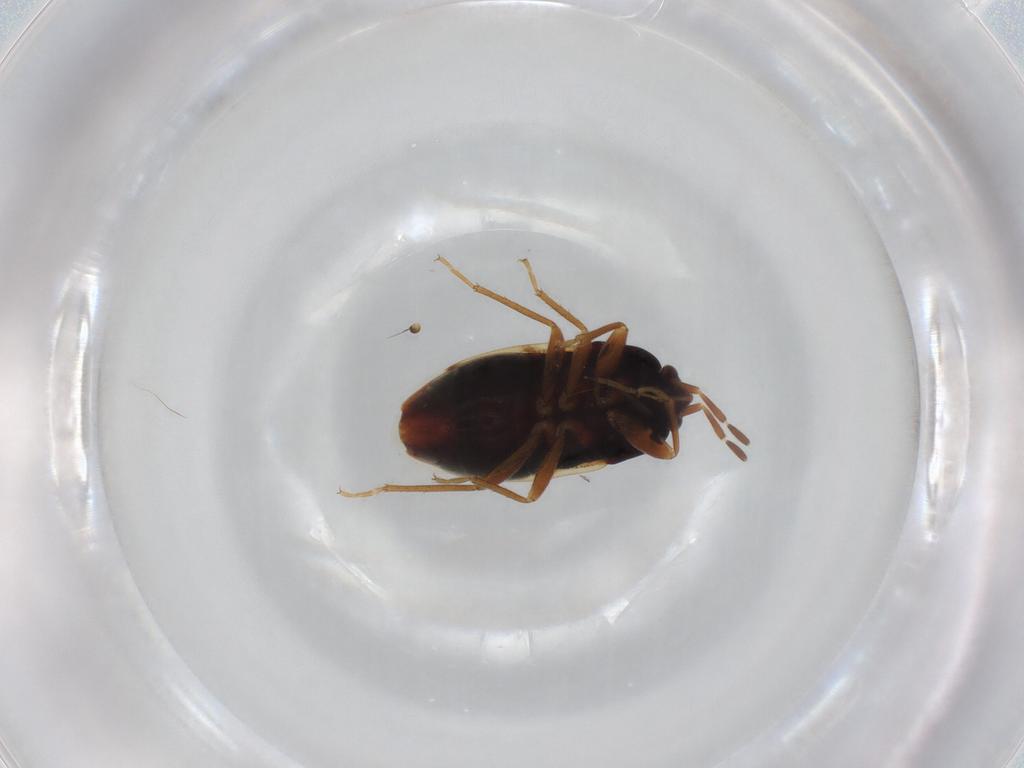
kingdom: Animalia
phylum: Arthropoda
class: Insecta
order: Hemiptera
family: Rhyparochromidae
